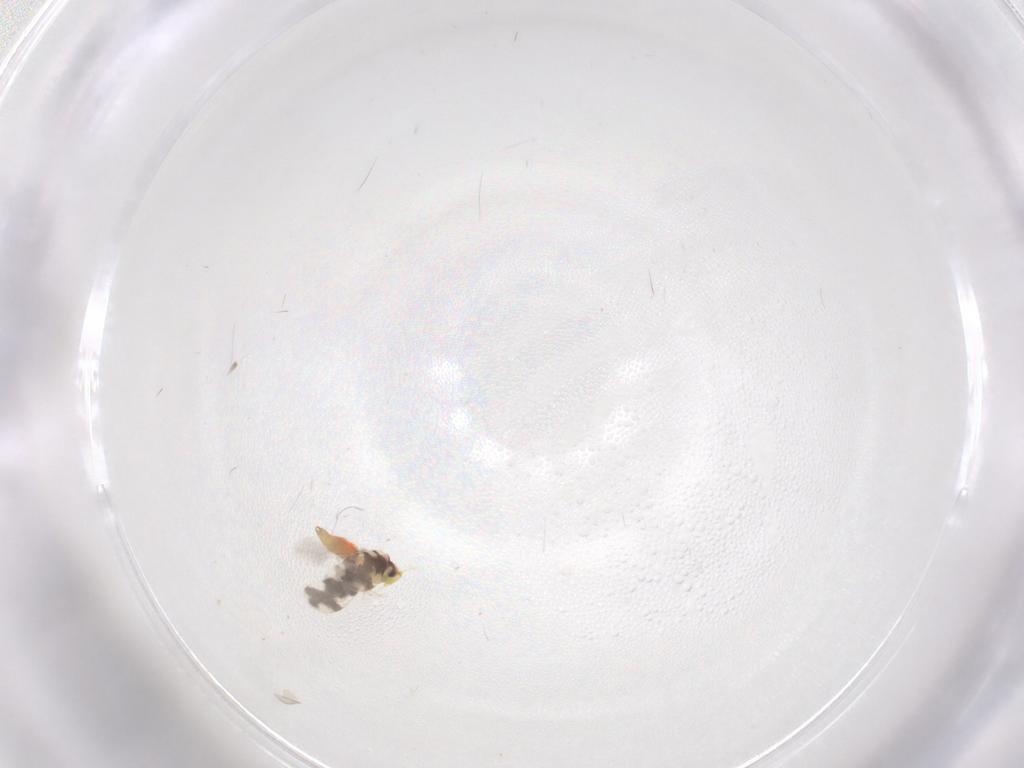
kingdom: Animalia
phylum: Arthropoda
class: Insecta
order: Hemiptera
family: Aleyrodidae
